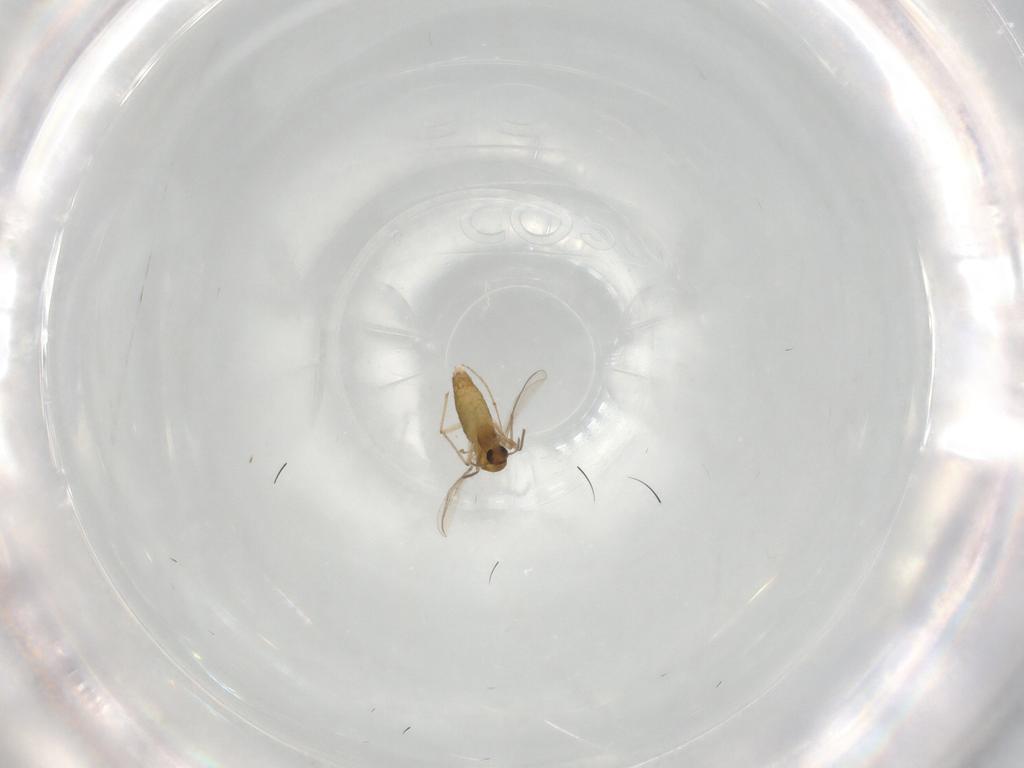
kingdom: Animalia
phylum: Arthropoda
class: Insecta
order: Diptera
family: Chironomidae
